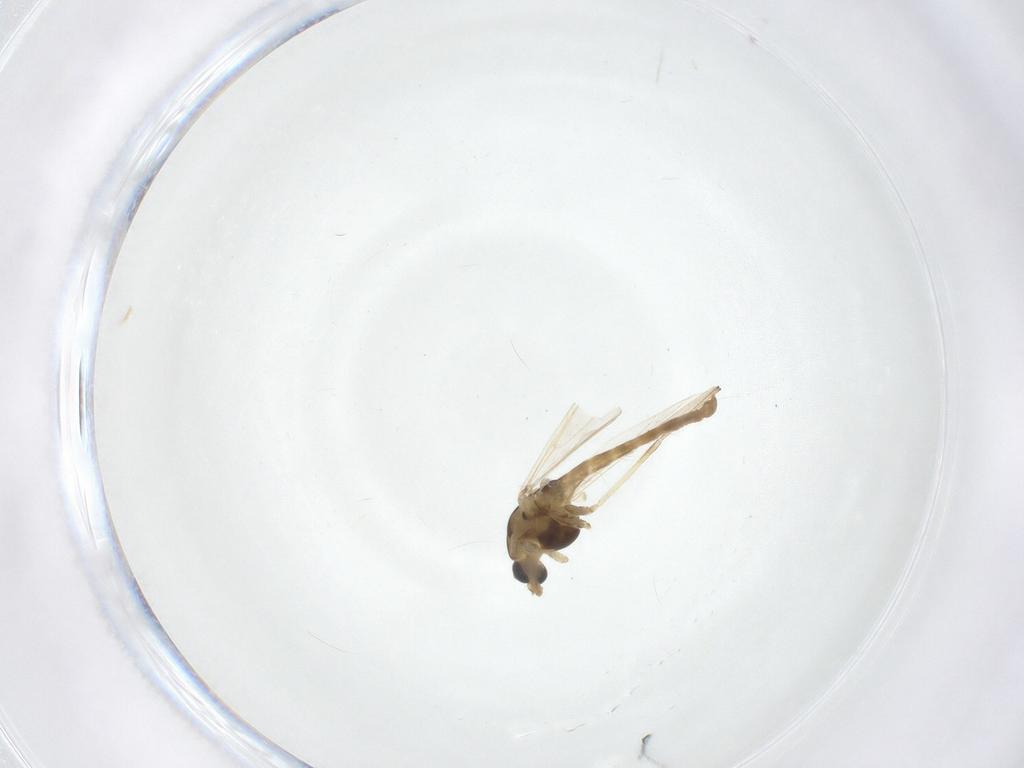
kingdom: Animalia
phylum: Arthropoda
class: Insecta
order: Diptera
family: Chironomidae
